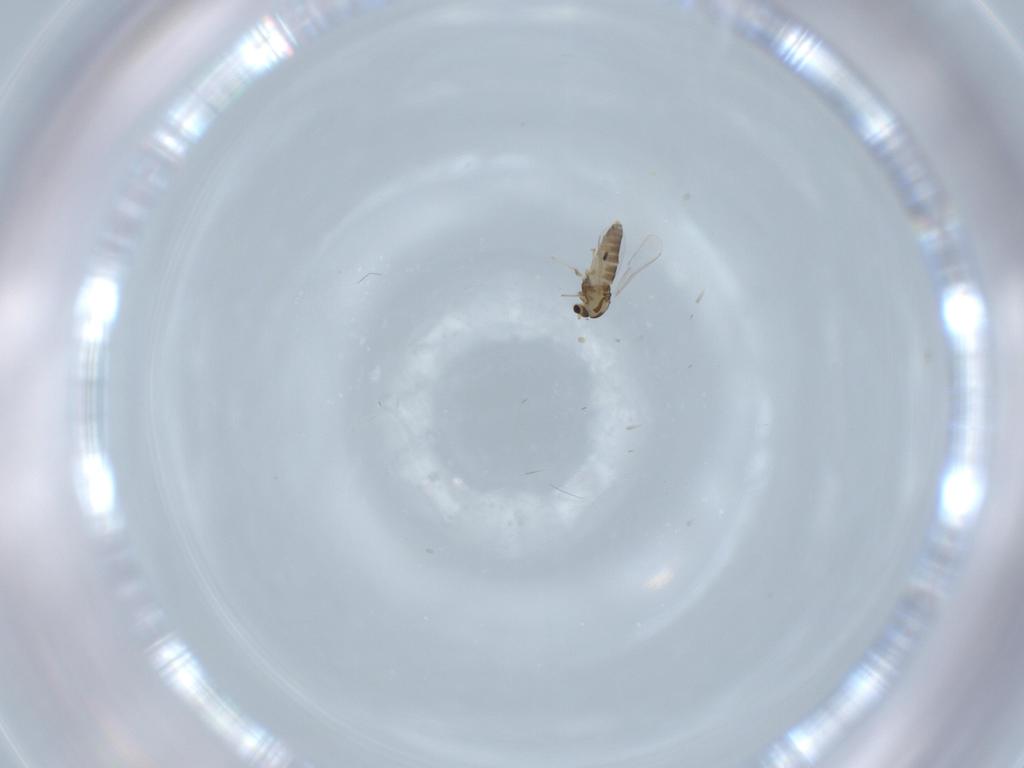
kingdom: Animalia
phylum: Arthropoda
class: Insecta
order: Diptera
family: Chironomidae
